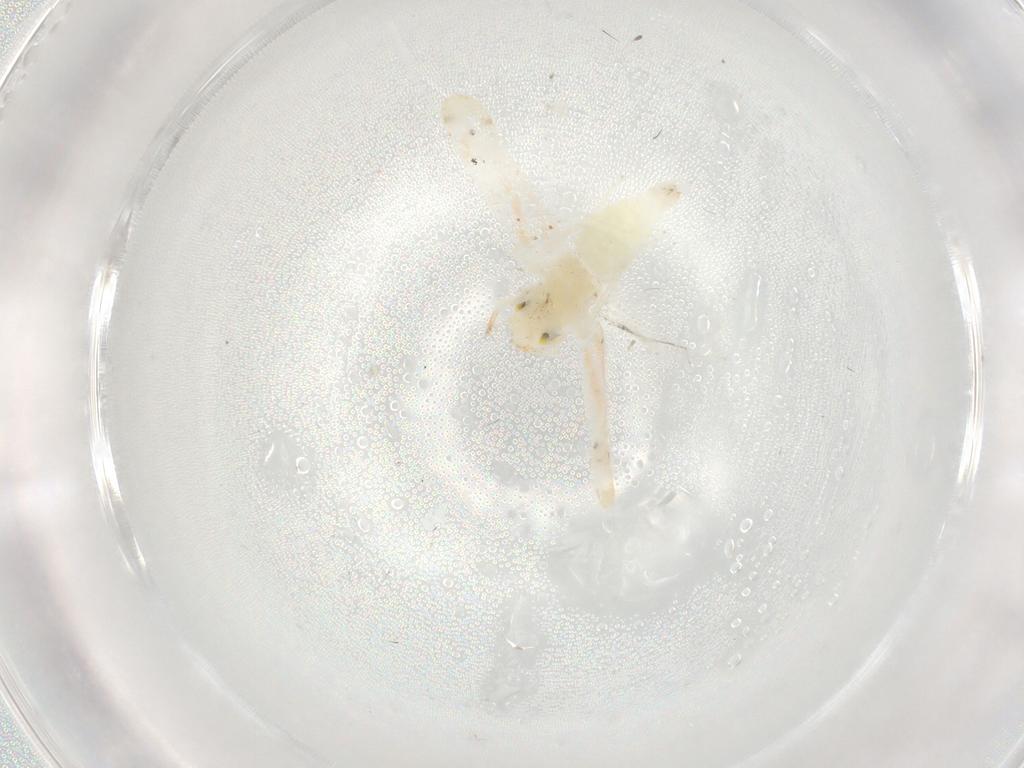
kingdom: Animalia
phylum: Arthropoda
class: Insecta
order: Hemiptera
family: Cicadellidae
